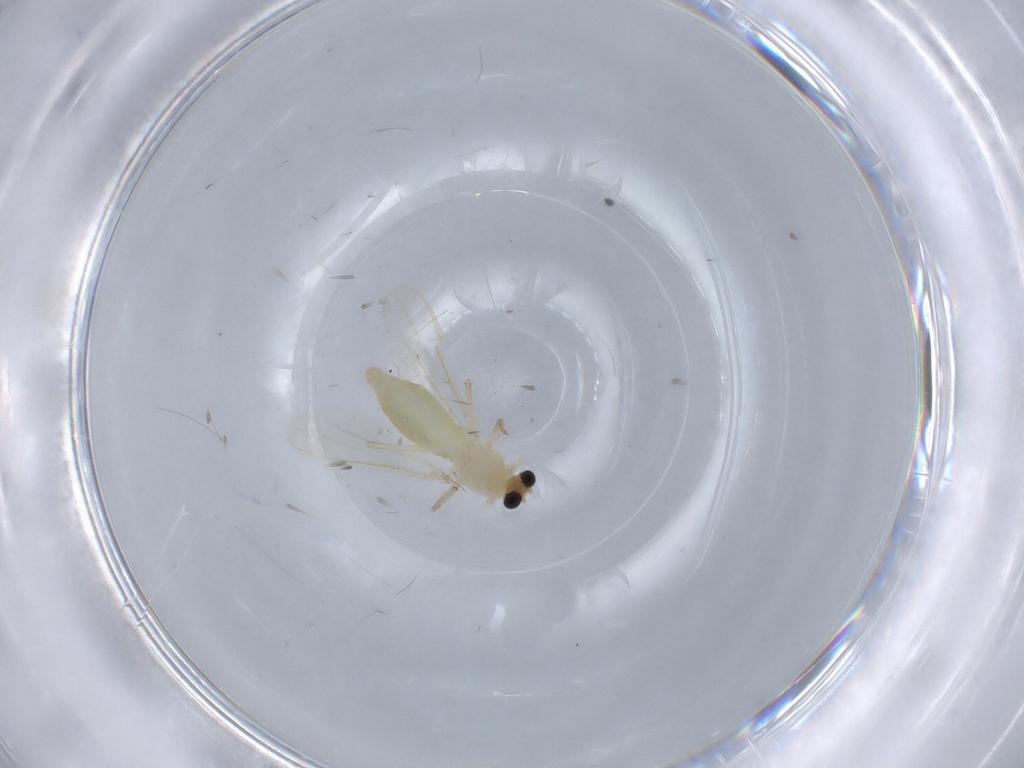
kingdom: Animalia
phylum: Arthropoda
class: Insecta
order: Diptera
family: Chironomidae
